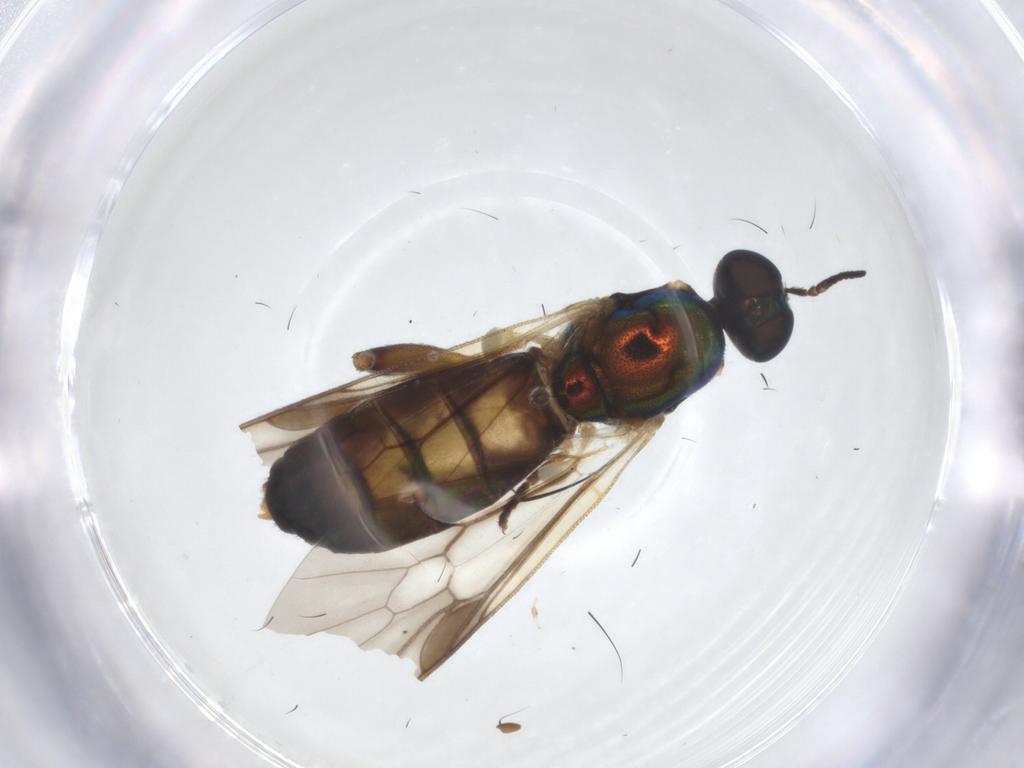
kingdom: Animalia
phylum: Arthropoda
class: Insecta
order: Diptera
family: Stratiomyidae
